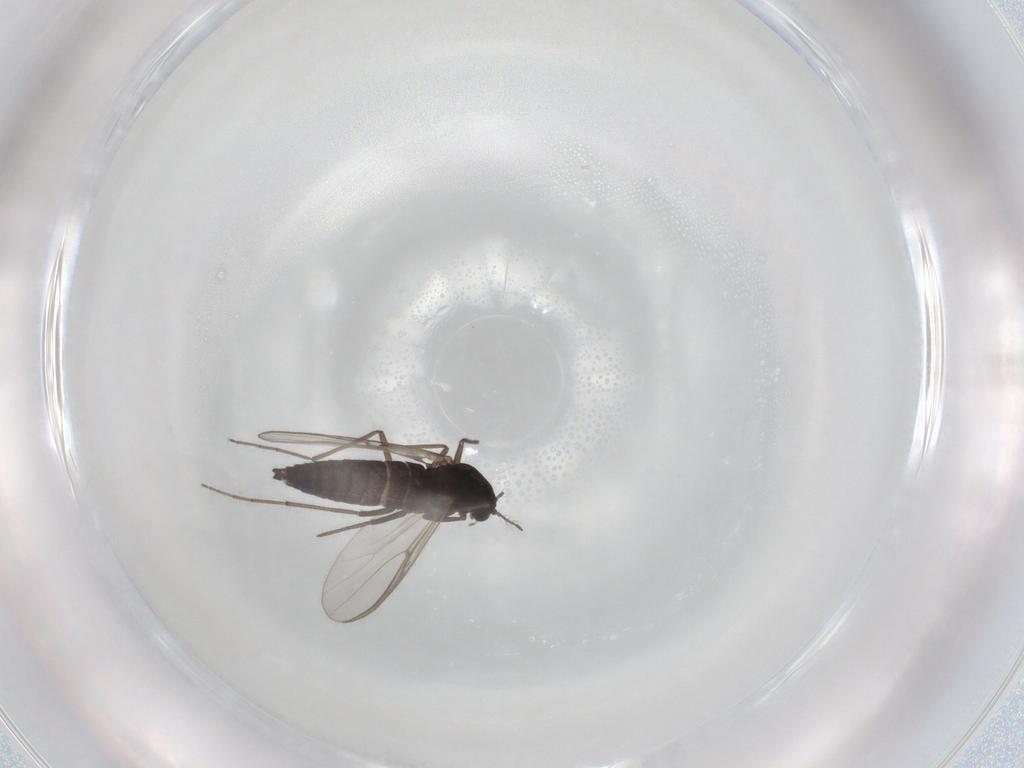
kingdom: Animalia
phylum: Arthropoda
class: Insecta
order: Diptera
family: Chironomidae
